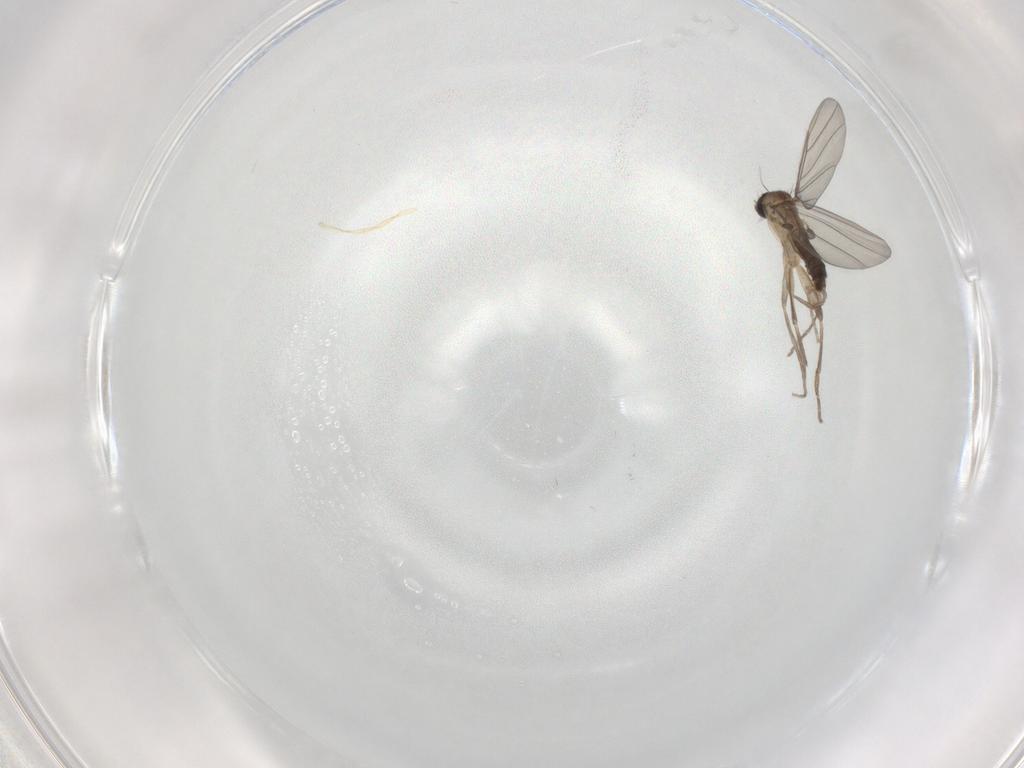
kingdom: Animalia
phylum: Arthropoda
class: Insecta
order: Diptera
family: Phoridae
